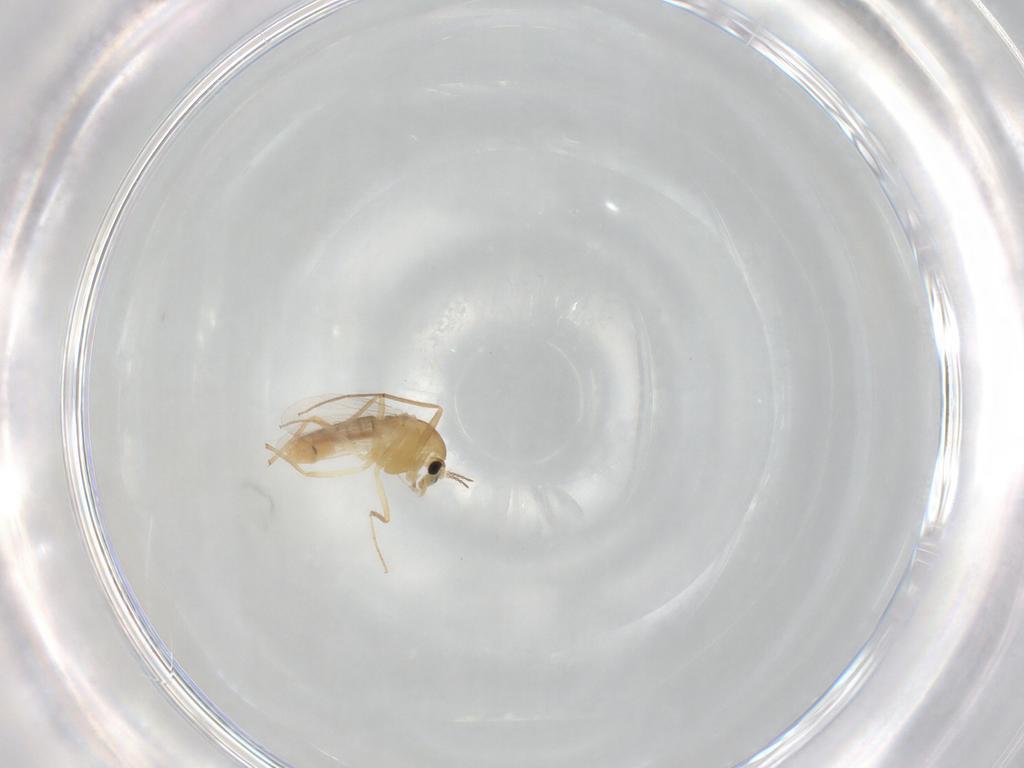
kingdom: Animalia
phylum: Arthropoda
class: Insecta
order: Diptera
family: Chironomidae
